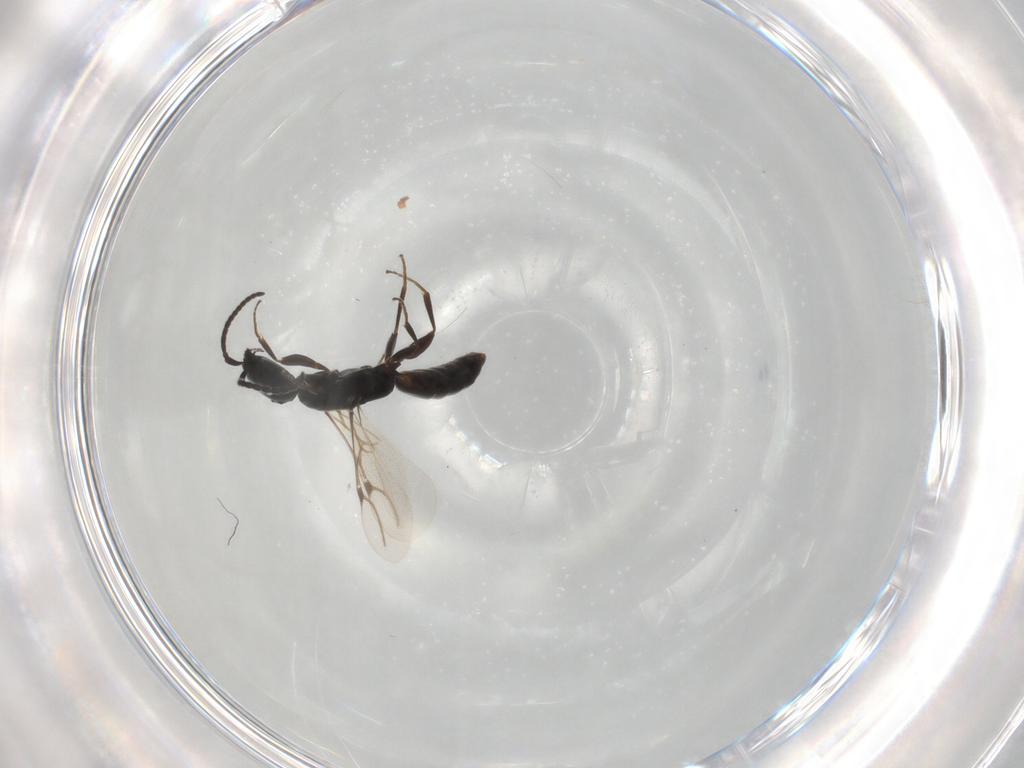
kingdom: Animalia
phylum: Arthropoda
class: Insecta
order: Hymenoptera
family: Bethylidae
